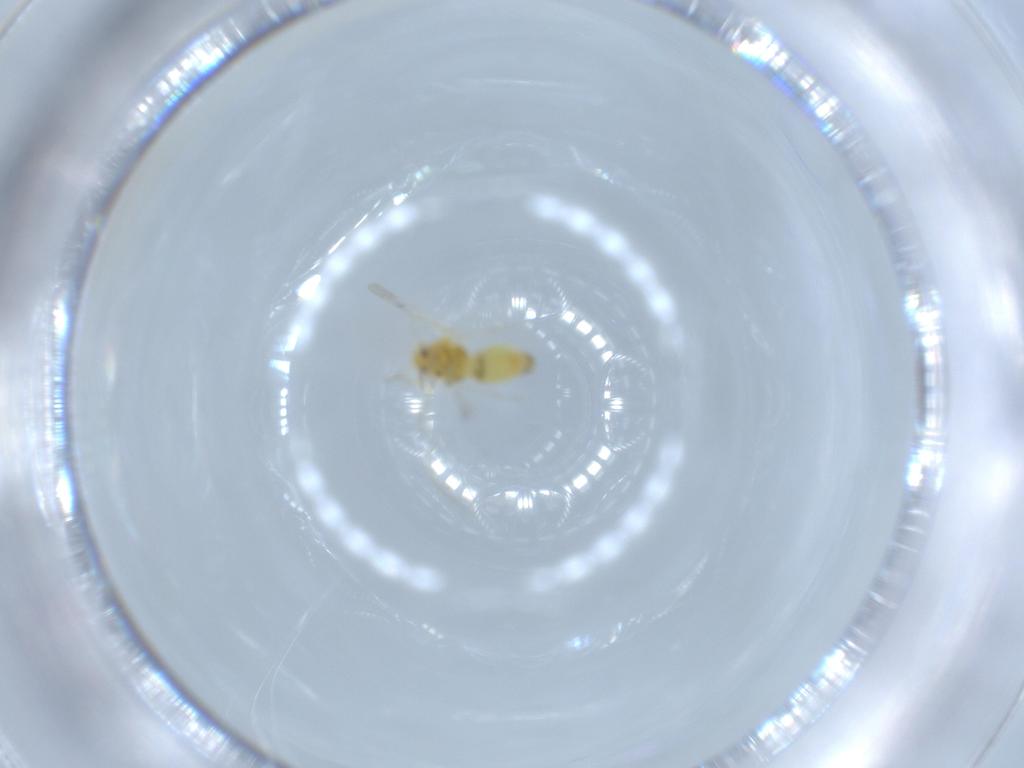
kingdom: Animalia
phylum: Arthropoda
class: Insecta
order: Hemiptera
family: Aleyrodidae
